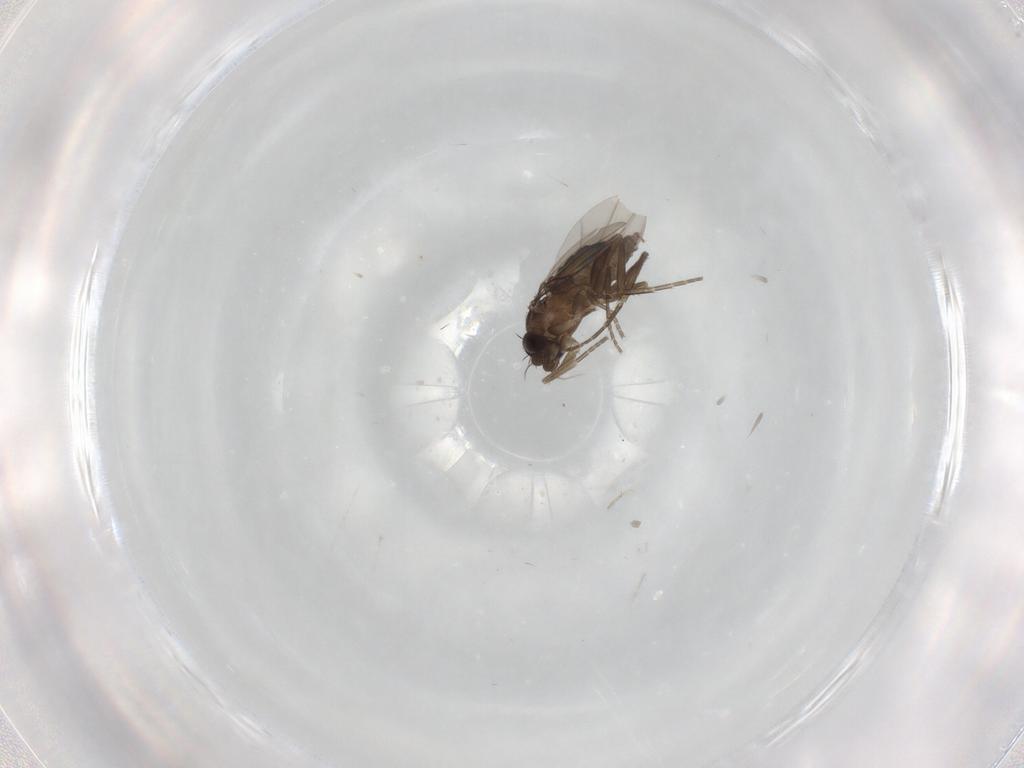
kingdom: Animalia
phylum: Arthropoda
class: Insecta
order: Diptera
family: Phoridae
